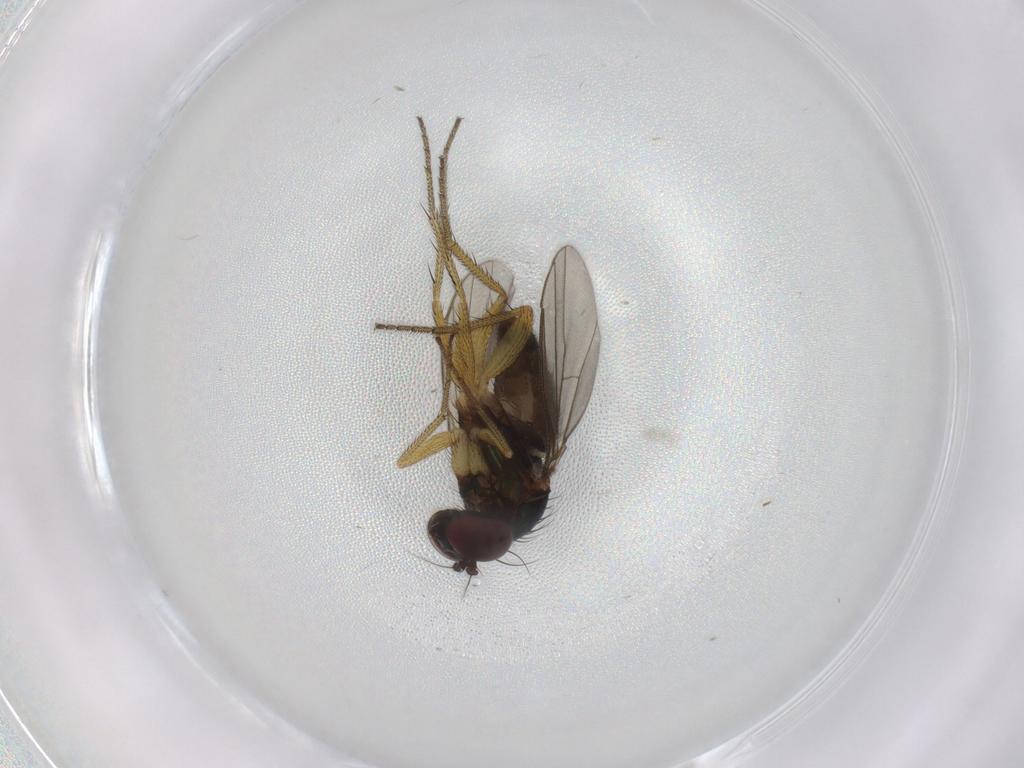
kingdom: Animalia
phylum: Arthropoda
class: Insecta
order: Diptera
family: Dolichopodidae
